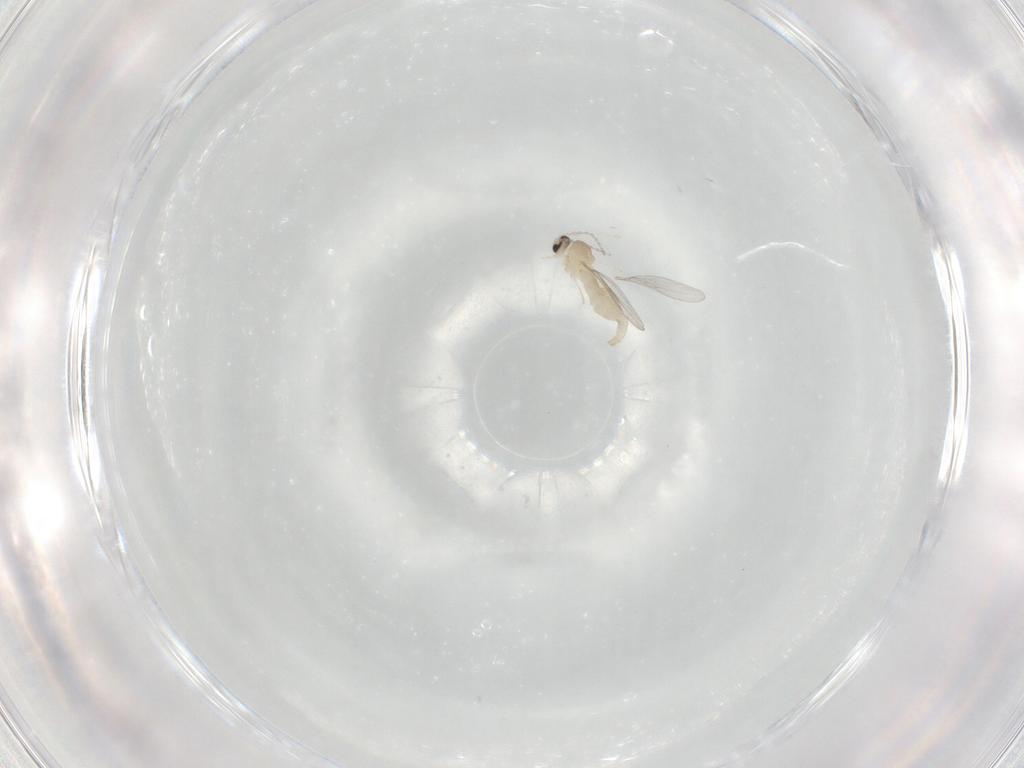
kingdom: Animalia
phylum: Arthropoda
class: Insecta
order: Diptera
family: Cecidomyiidae
